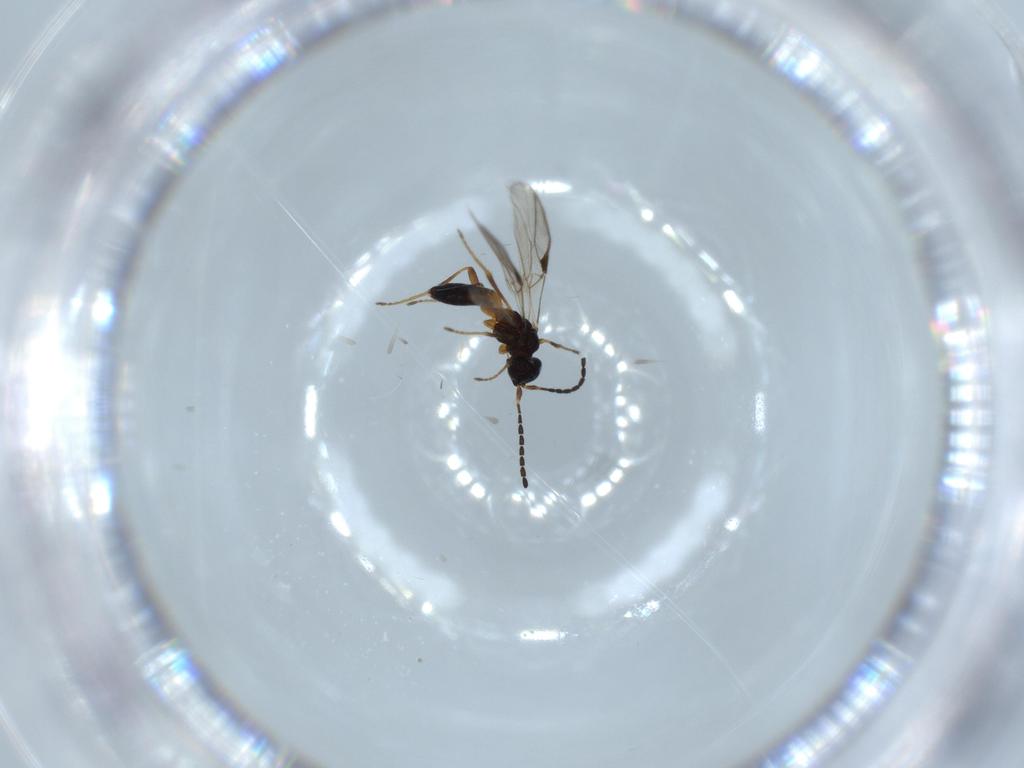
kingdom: Animalia
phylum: Arthropoda
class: Insecta
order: Hymenoptera
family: Braconidae
